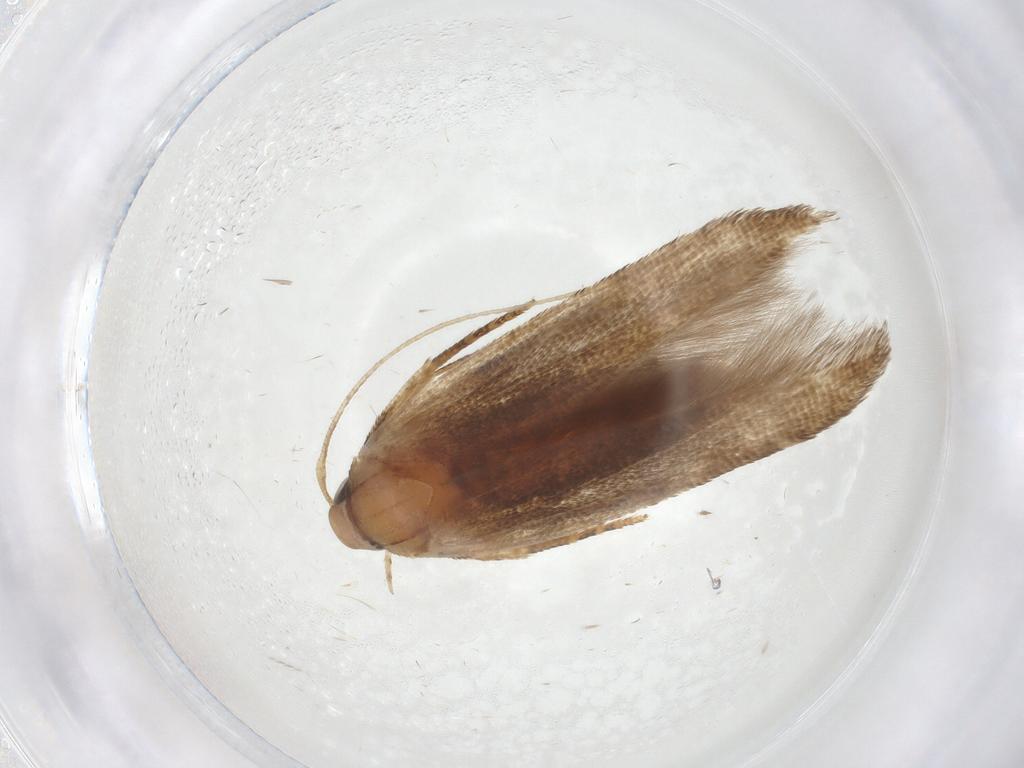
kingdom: Animalia
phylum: Arthropoda
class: Insecta
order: Lepidoptera
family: Cosmopterigidae
